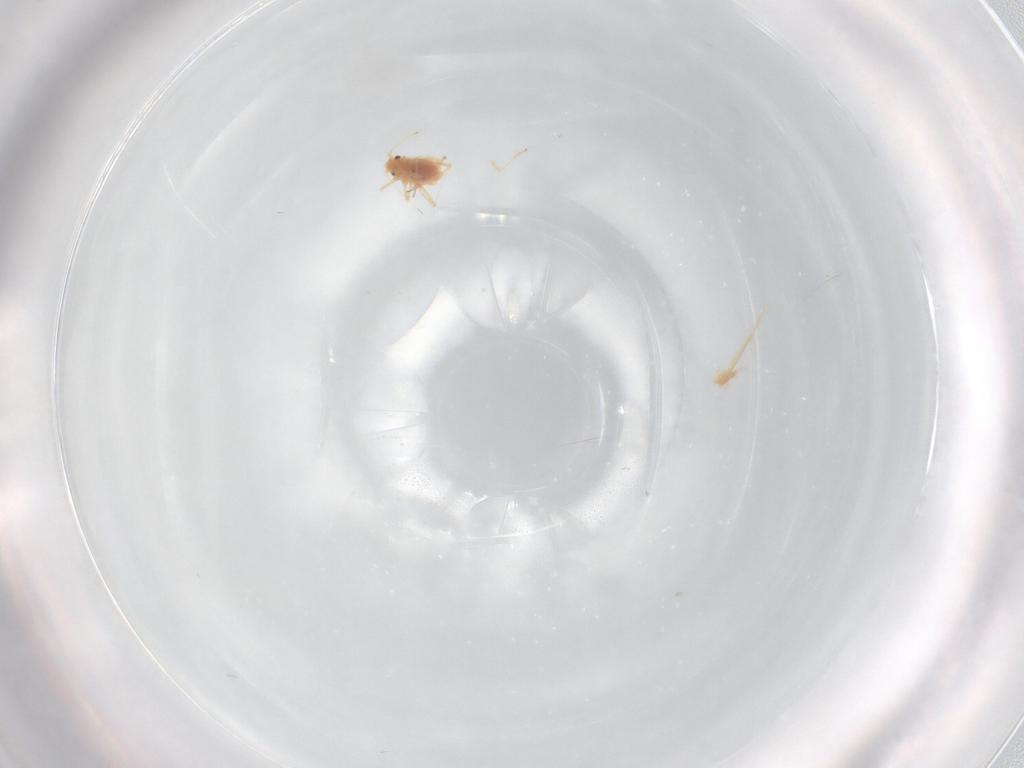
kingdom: Animalia
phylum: Arthropoda
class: Insecta
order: Hemiptera
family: Aphididae
